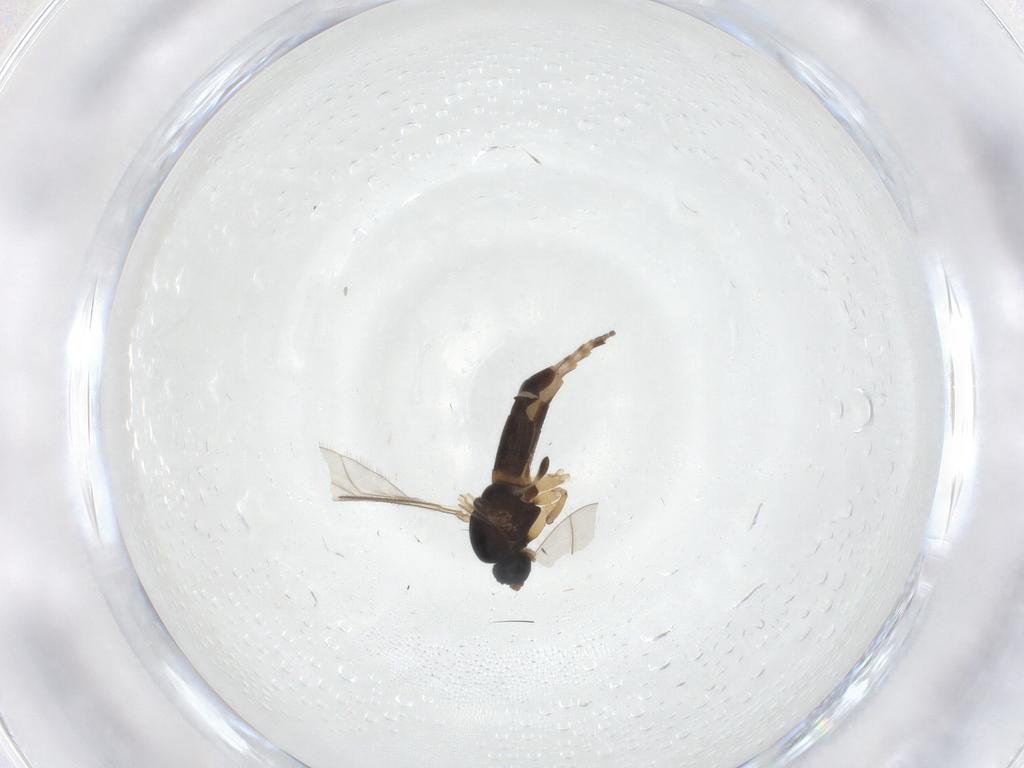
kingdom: Animalia
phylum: Arthropoda
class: Insecta
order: Diptera
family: Sciaridae
